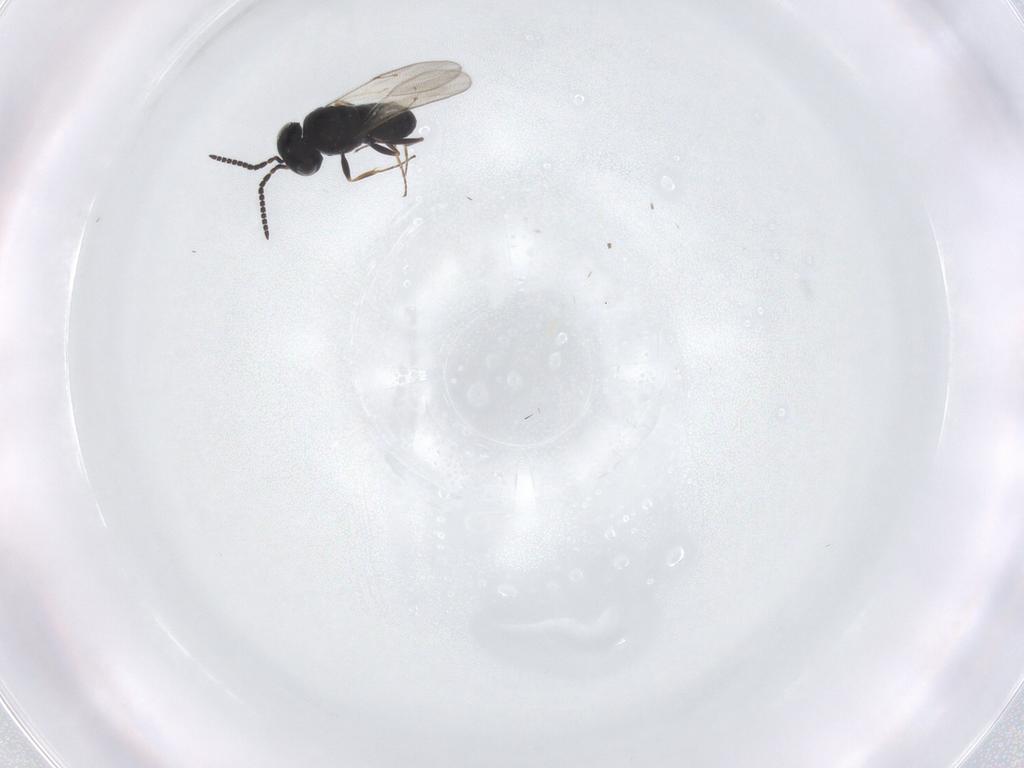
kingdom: Animalia
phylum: Arthropoda
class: Insecta
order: Hymenoptera
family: Scelionidae
